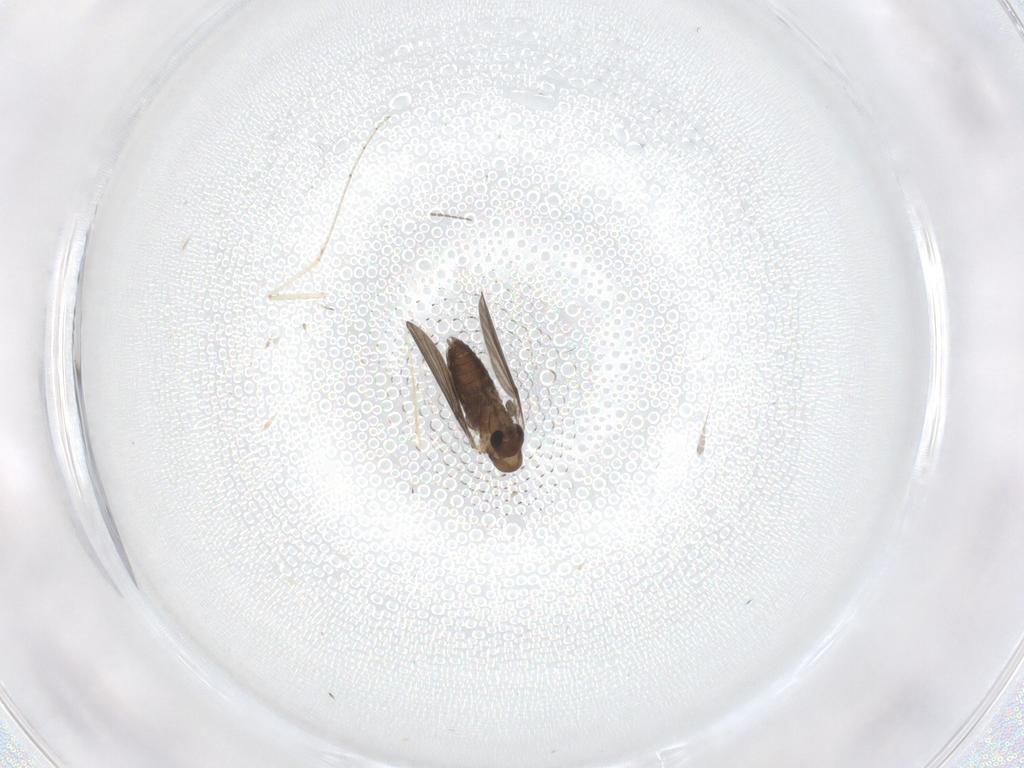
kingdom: Animalia
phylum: Arthropoda
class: Insecta
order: Diptera
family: Cecidomyiidae
